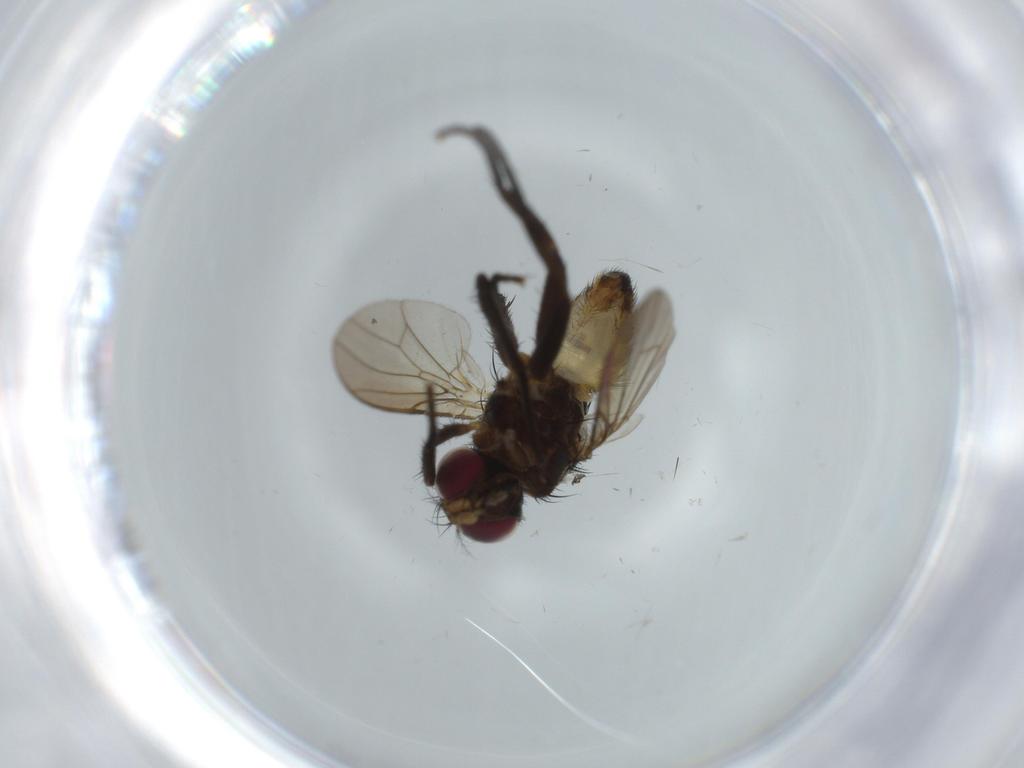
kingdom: Animalia
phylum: Arthropoda
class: Insecta
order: Diptera
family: Anthomyiidae
